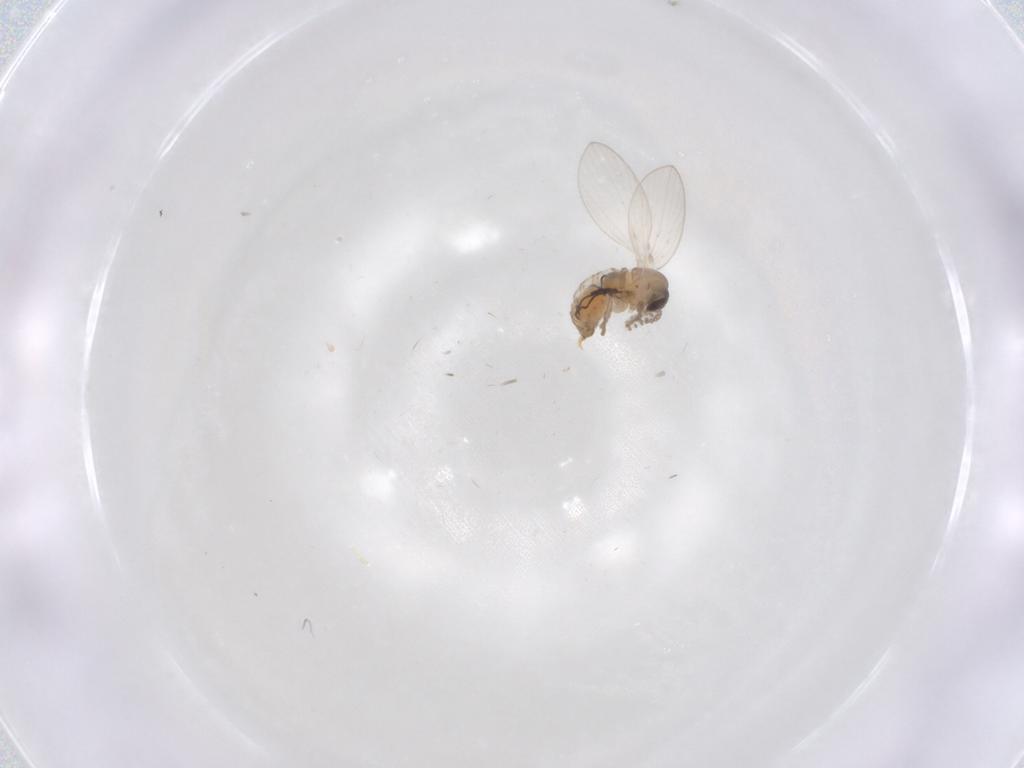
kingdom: Animalia
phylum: Arthropoda
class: Insecta
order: Diptera
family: Psychodidae
